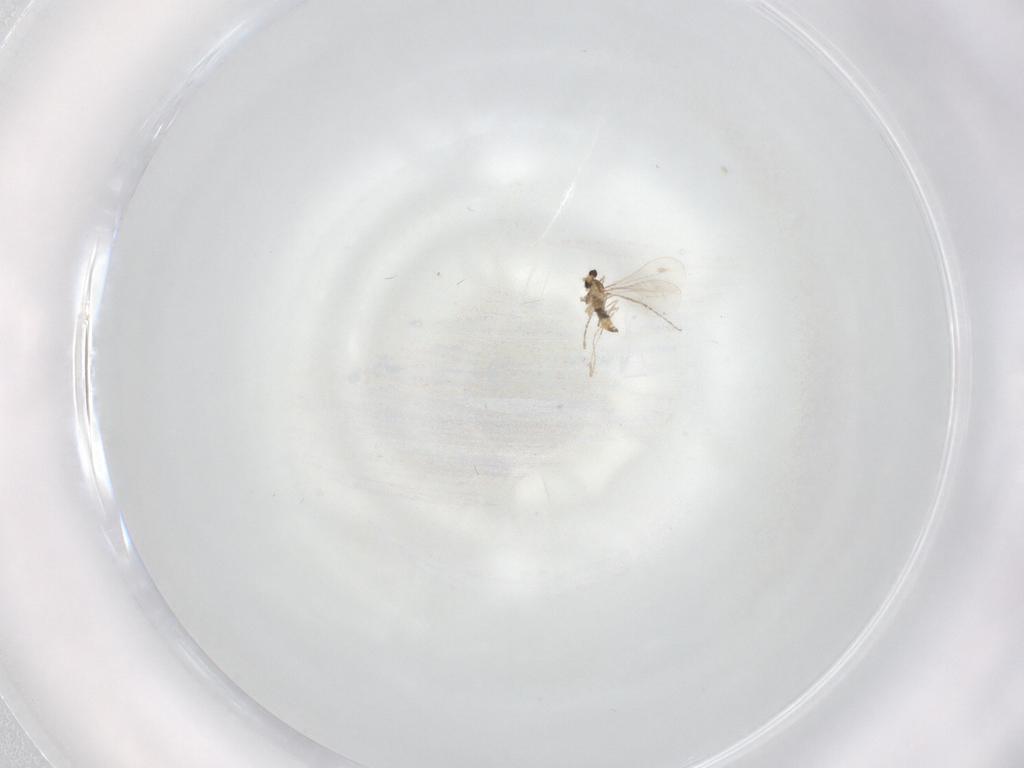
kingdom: Animalia
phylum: Arthropoda
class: Insecta
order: Diptera
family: Cecidomyiidae
